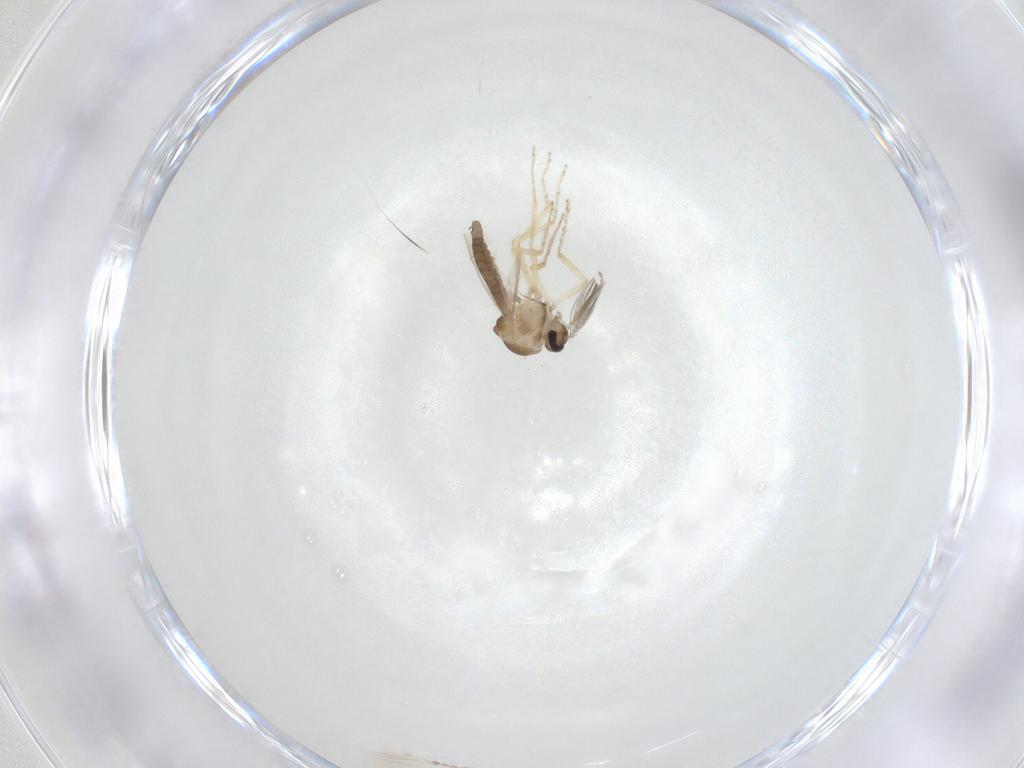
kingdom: Animalia
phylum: Arthropoda
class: Insecta
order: Diptera
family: Ceratopogonidae
